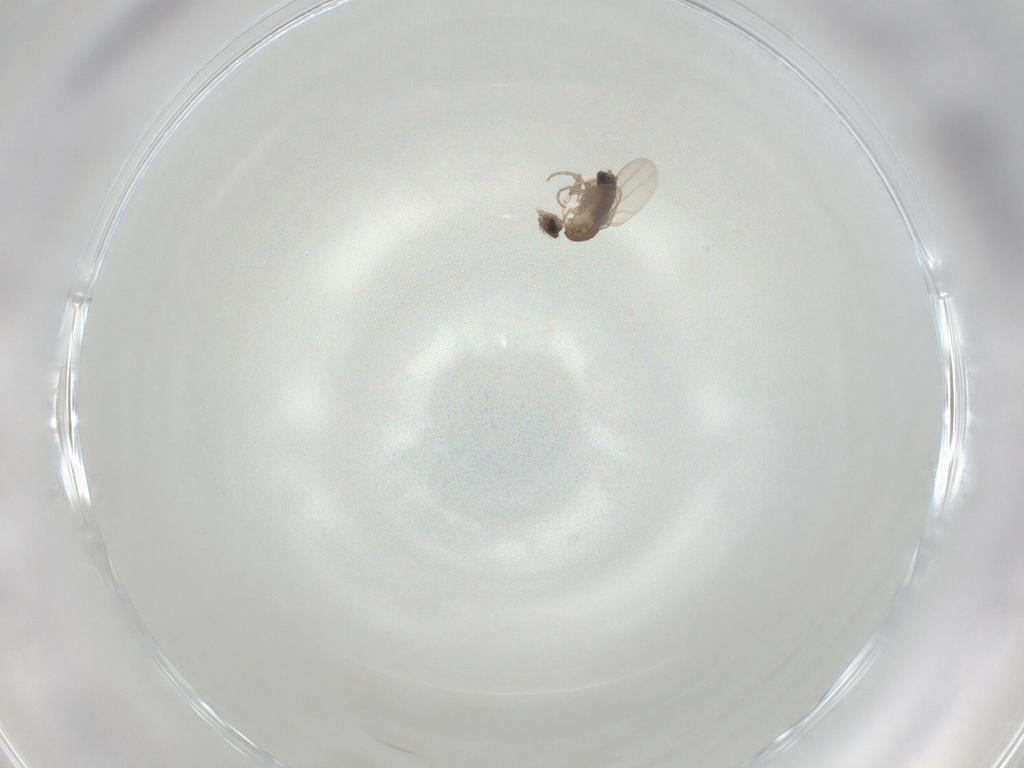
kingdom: Animalia
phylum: Arthropoda
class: Insecta
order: Diptera
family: Phoridae
